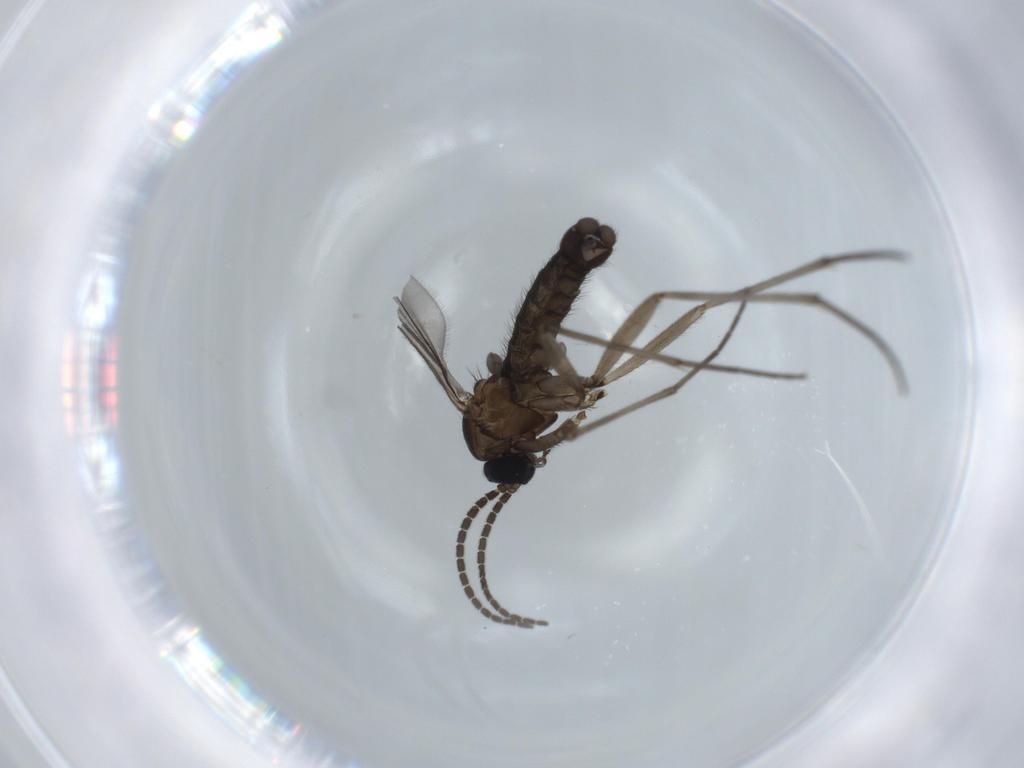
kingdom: Animalia
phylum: Arthropoda
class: Insecta
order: Diptera
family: Sciaridae
